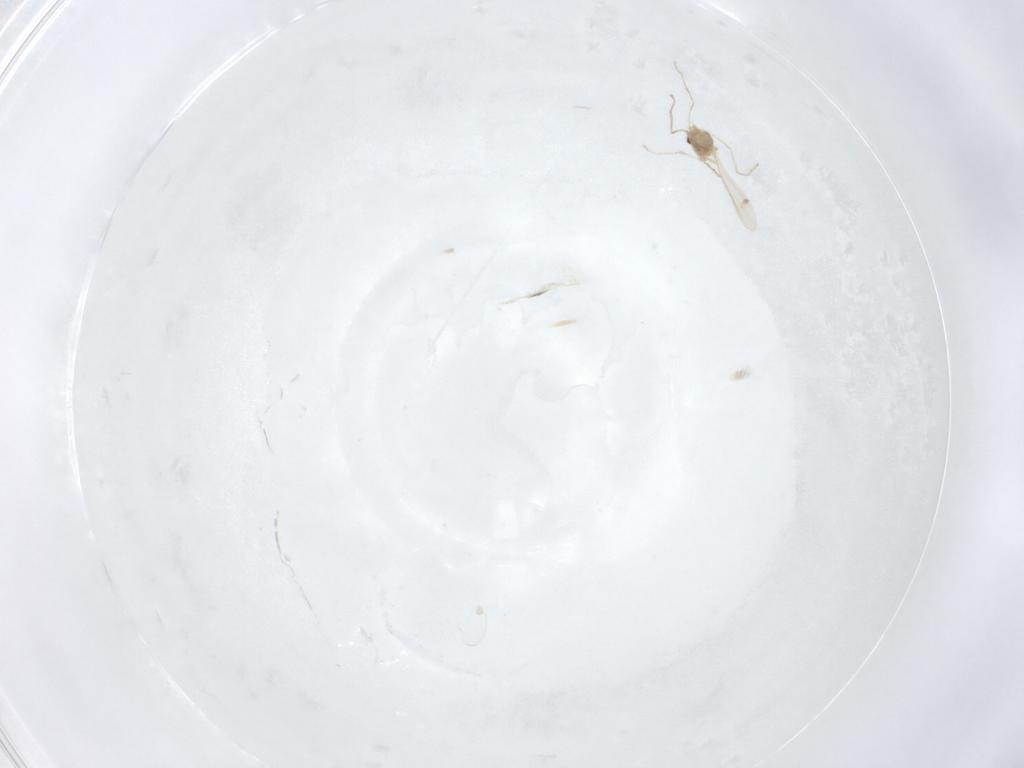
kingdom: Animalia
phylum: Arthropoda
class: Insecta
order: Diptera
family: Cecidomyiidae
